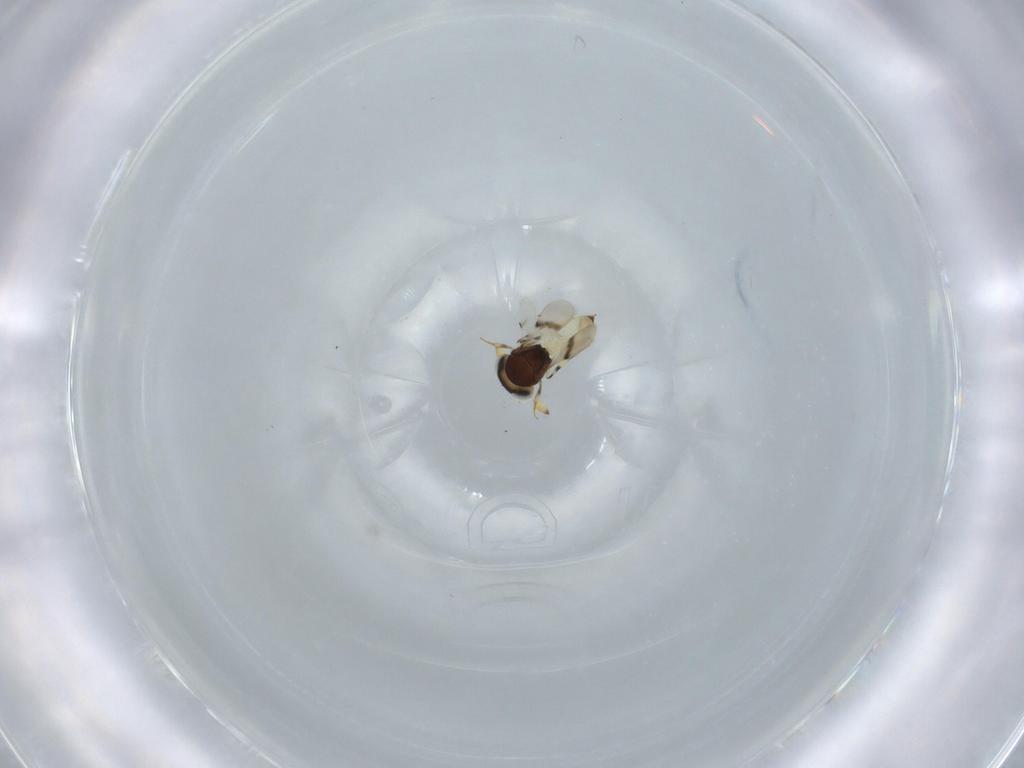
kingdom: Animalia
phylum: Arthropoda
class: Insecta
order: Hymenoptera
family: Scelionidae
